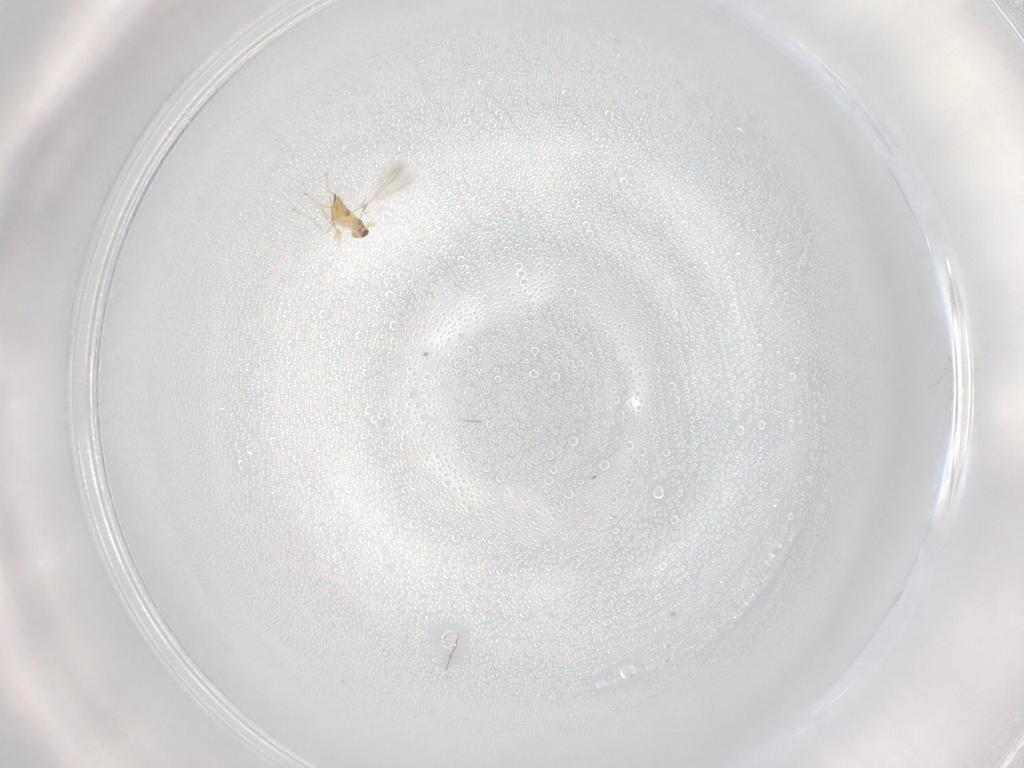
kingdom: Animalia
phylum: Arthropoda
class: Insecta
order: Hymenoptera
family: Mymaridae
